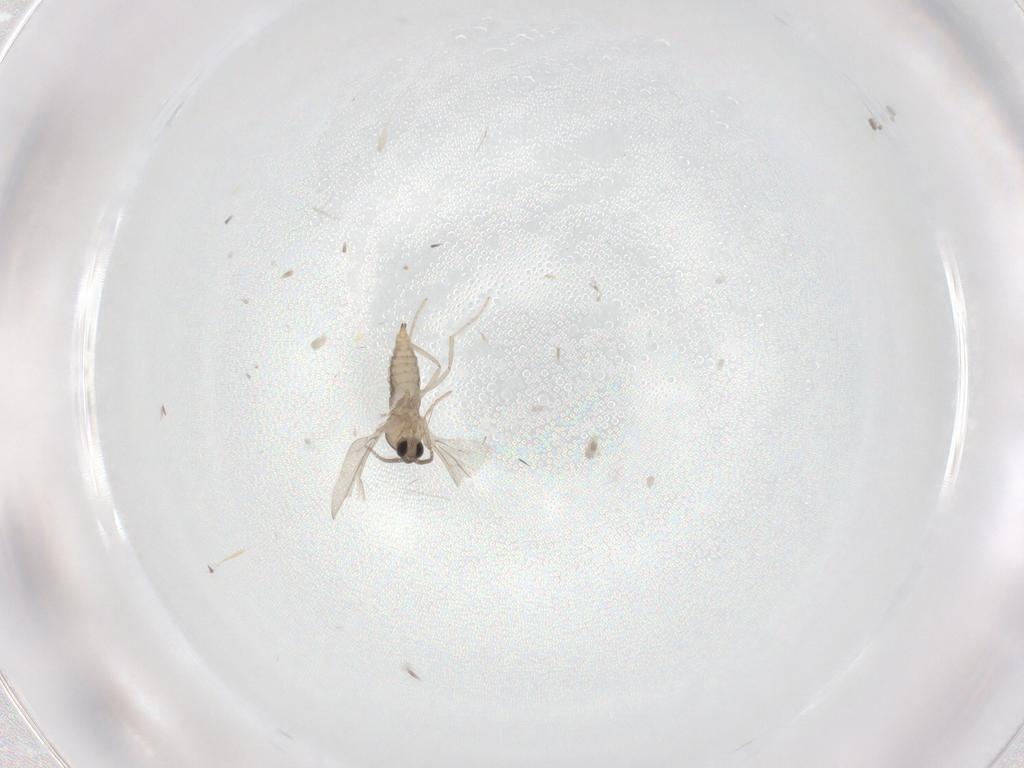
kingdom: Animalia
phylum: Arthropoda
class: Insecta
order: Diptera
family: Cecidomyiidae
